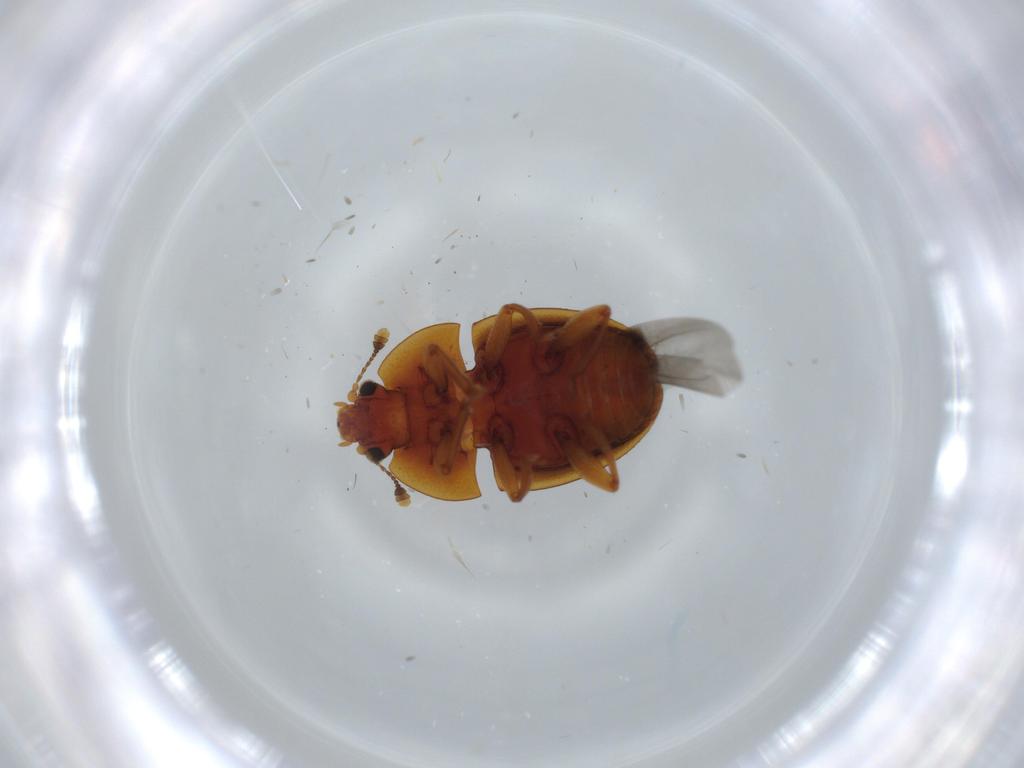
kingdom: Animalia
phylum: Arthropoda
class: Insecta
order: Coleoptera
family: Nitidulidae
